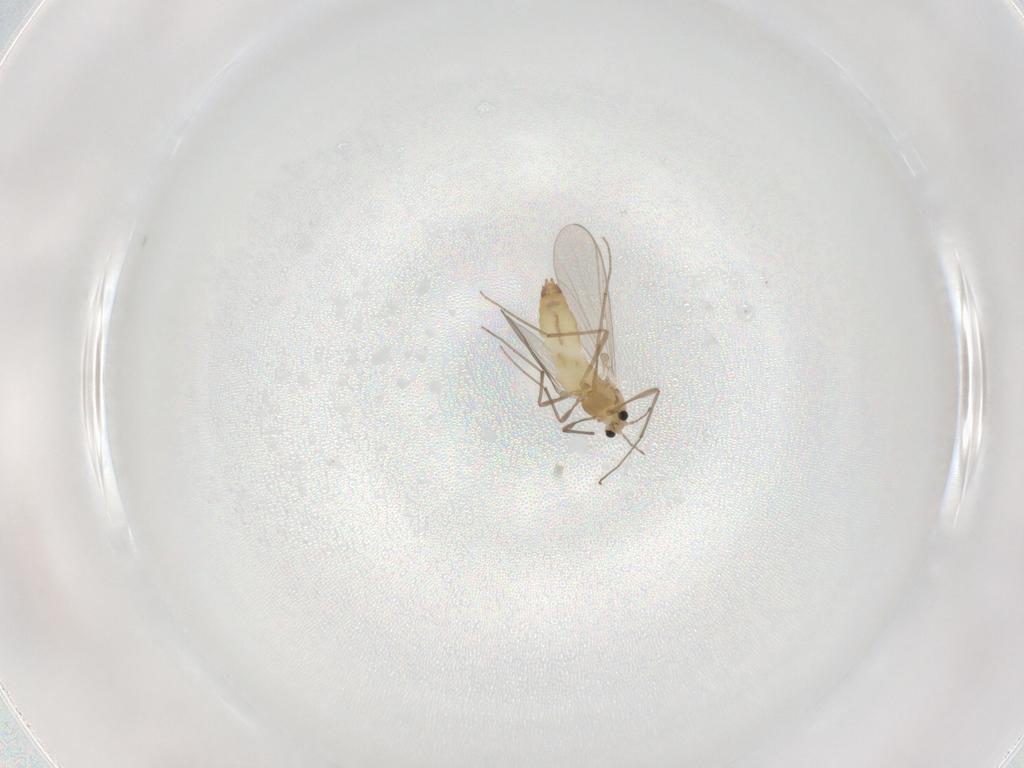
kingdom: Animalia
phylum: Arthropoda
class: Insecta
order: Diptera
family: Chironomidae
